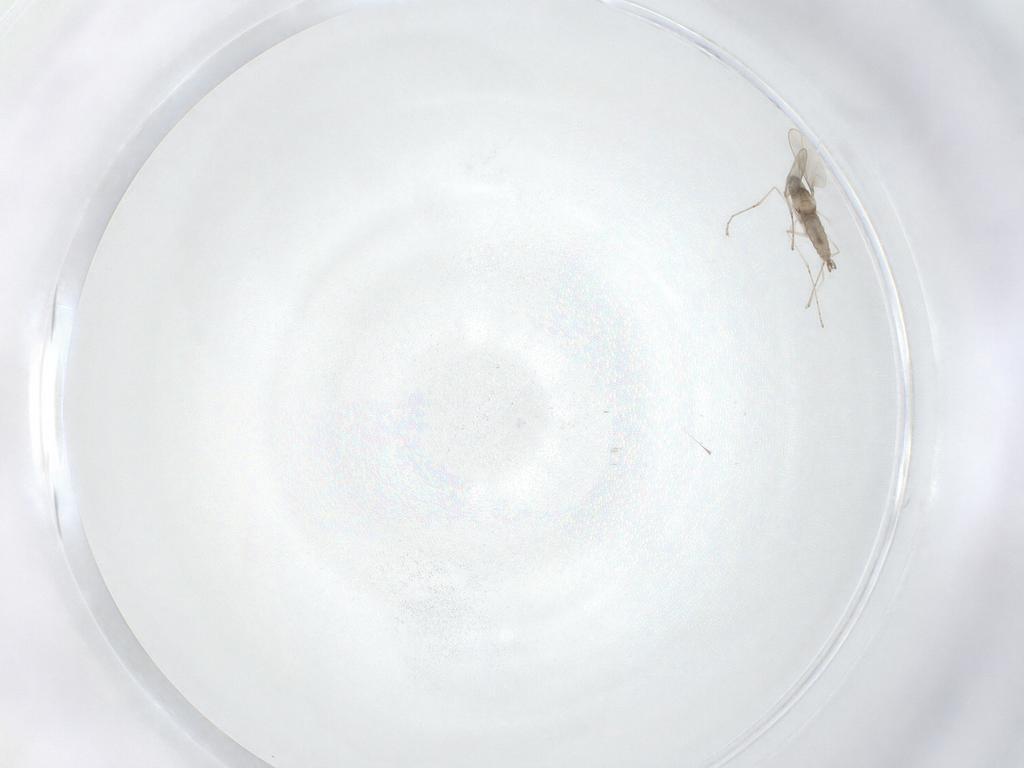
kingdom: Animalia
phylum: Arthropoda
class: Insecta
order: Diptera
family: Cecidomyiidae
